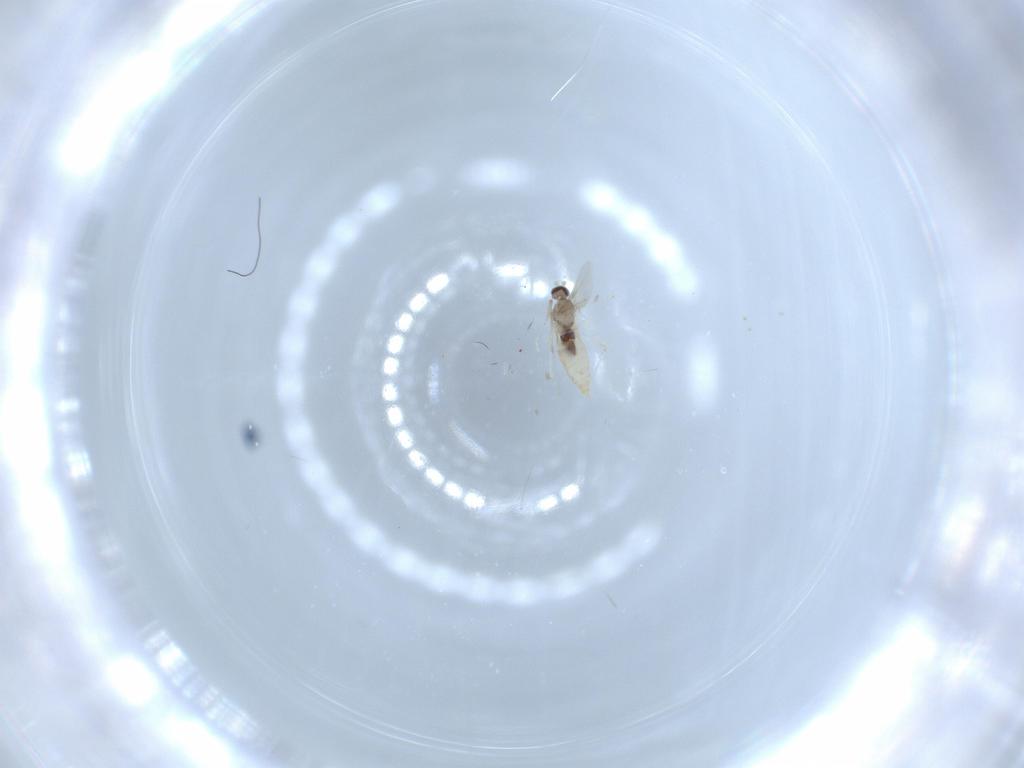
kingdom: Animalia
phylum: Arthropoda
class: Insecta
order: Diptera
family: Cecidomyiidae
